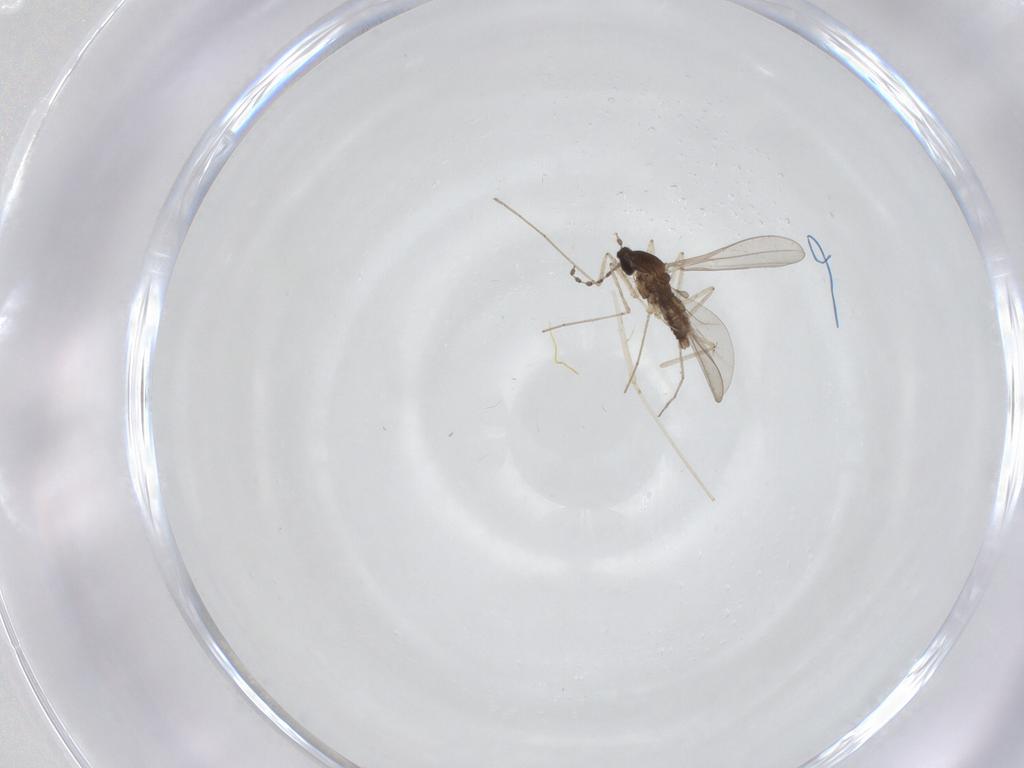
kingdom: Animalia
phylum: Arthropoda
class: Insecta
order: Diptera
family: Cecidomyiidae
